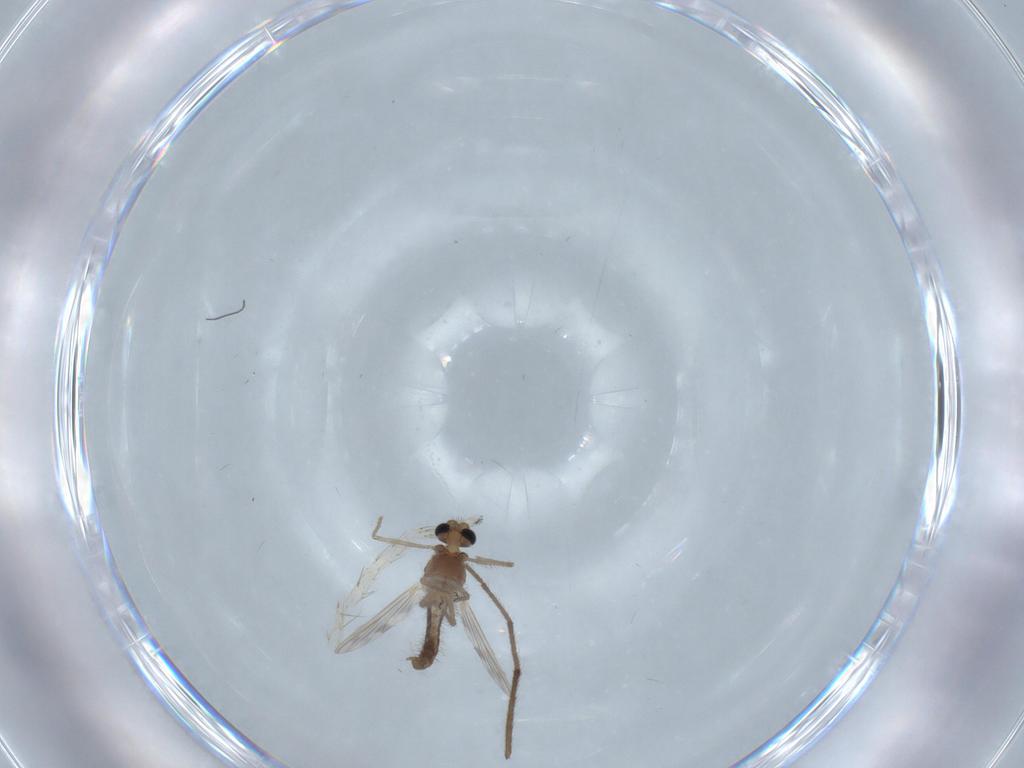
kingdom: Animalia
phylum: Arthropoda
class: Insecta
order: Diptera
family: Chironomidae
